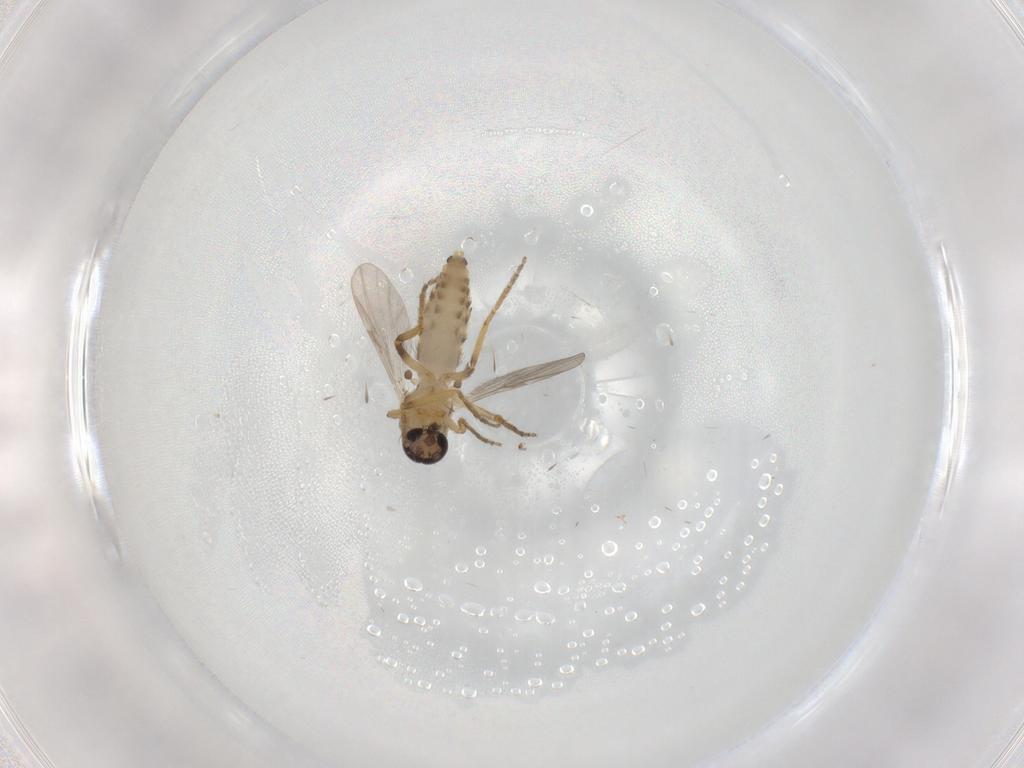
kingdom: Animalia
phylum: Arthropoda
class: Insecta
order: Diptera
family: Ceratopogonidae
